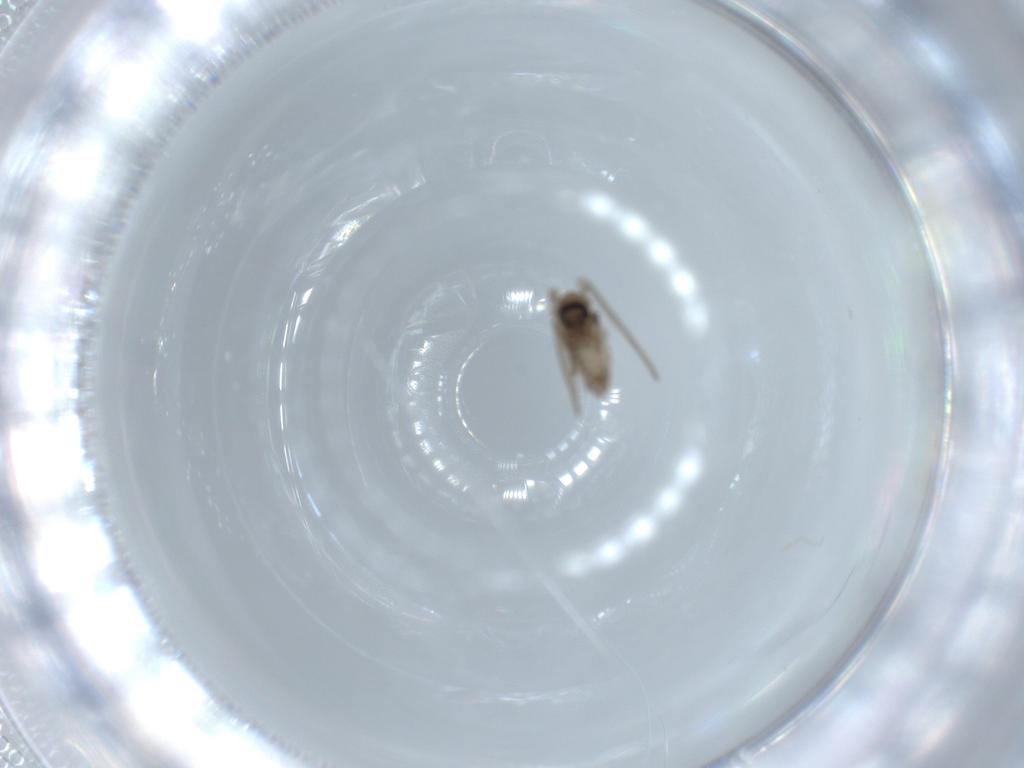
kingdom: Animalia
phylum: Arthropoda
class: Insecta
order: Diptera
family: Psychodidae
